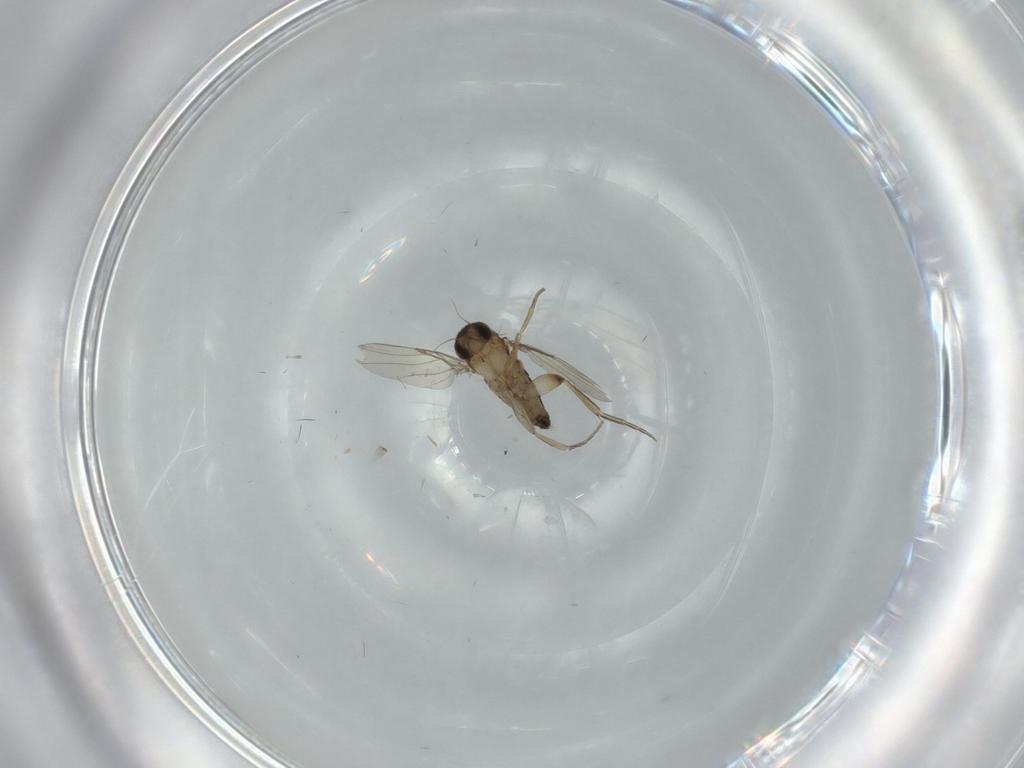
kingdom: Animalia
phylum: Arthropoda
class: Insecta
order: Diptera
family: Phoridae
